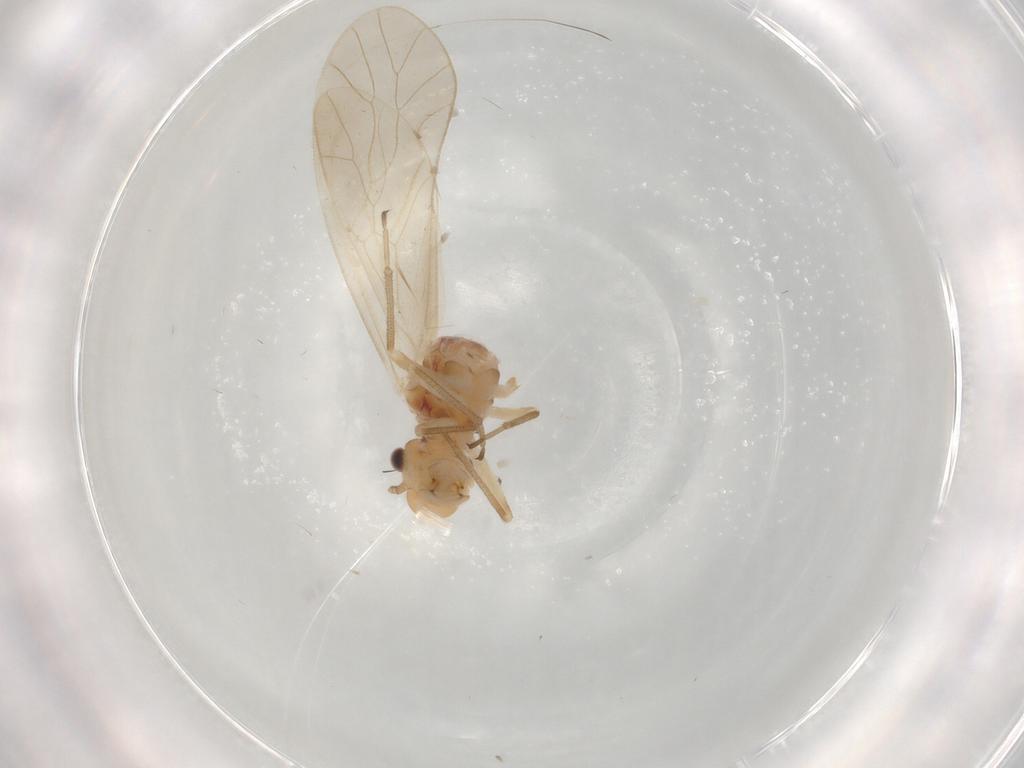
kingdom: Animalia
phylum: Arthropoda
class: Insecta
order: Psocodea
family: Caeciliusidae
